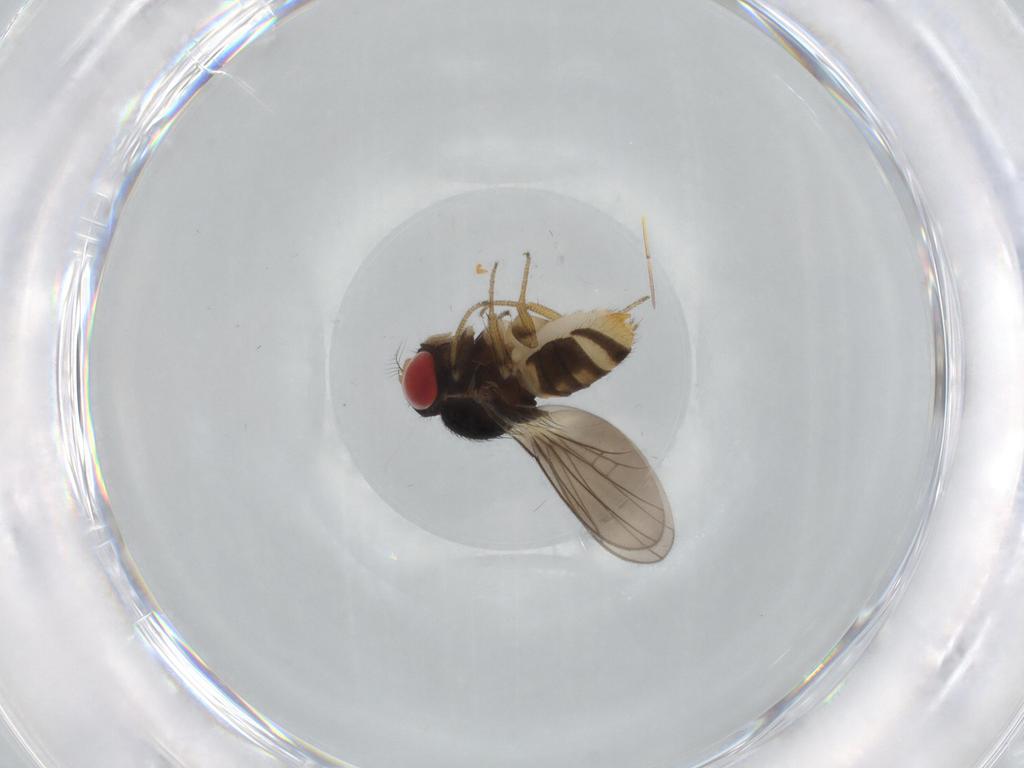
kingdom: Animalia
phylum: Arthropoda
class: Insecta
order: Diptera
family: Drosophilidae
